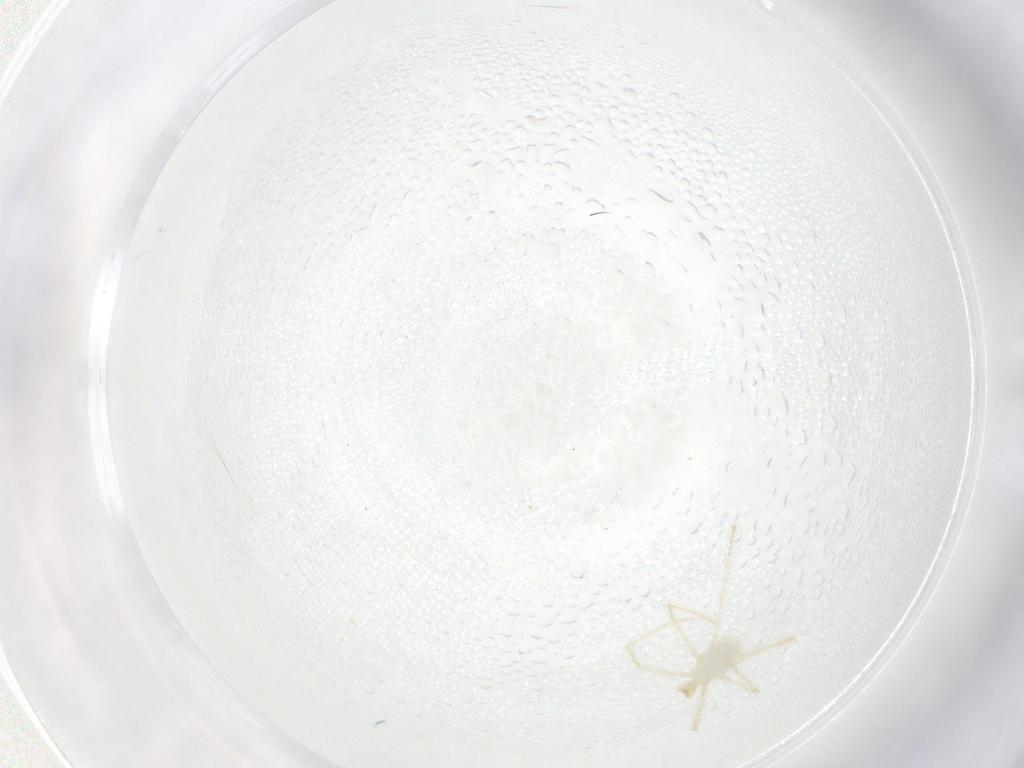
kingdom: Animalia
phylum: Arthropoda
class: Arachnida
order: Trombidiformes
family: Erythraeidae
